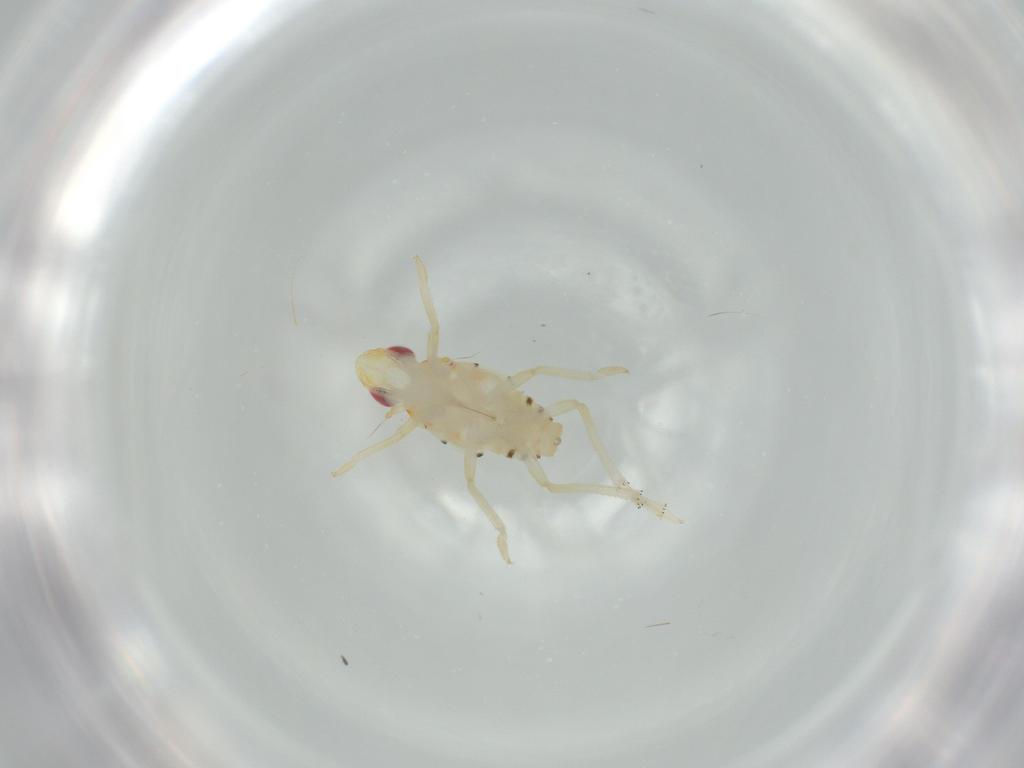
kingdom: Animalia
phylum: Arthropoda
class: Insecta
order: Hemiptera
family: Tropiduchidae
